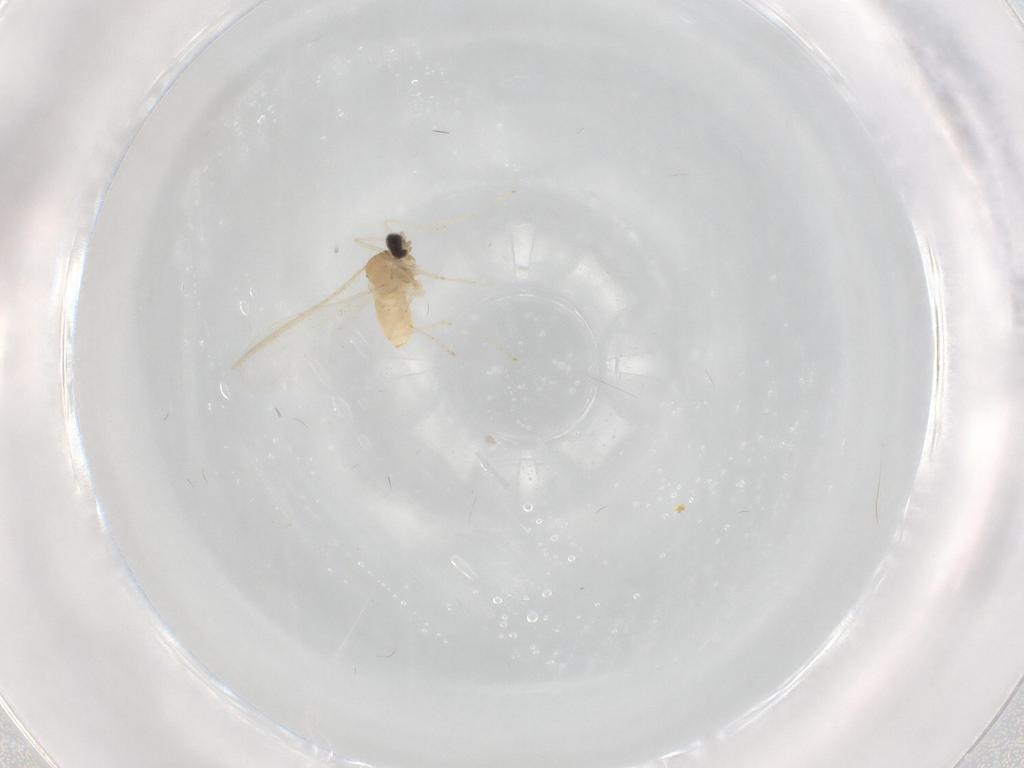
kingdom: Animalia
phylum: Arthropoda
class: Insecta
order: Diptera
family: Cecidomyiidae
